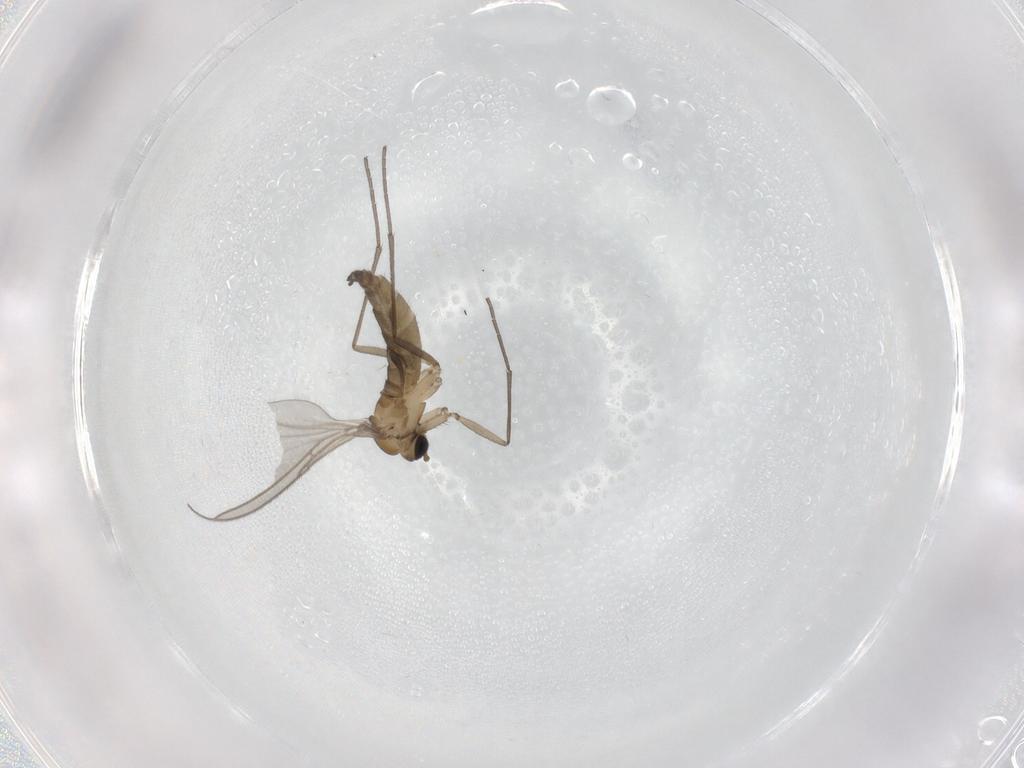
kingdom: Animalia
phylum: Arthropoda
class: Insecta
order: Diptera
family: Sciaridae
